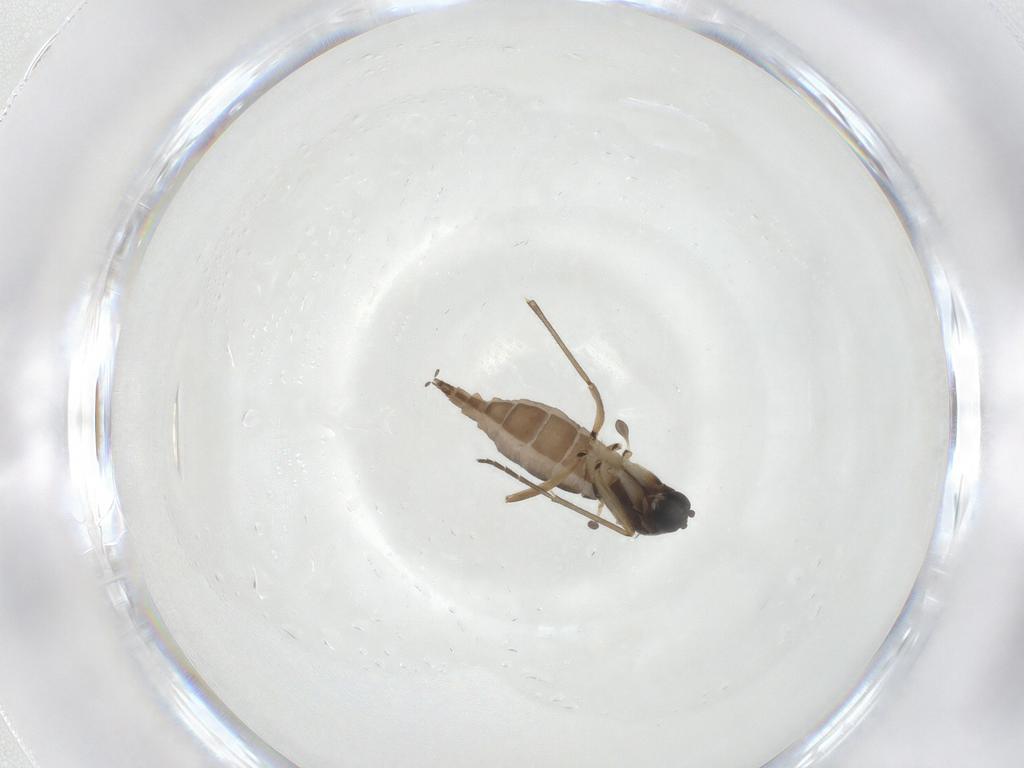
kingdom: Animalia
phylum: Arthropoda
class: Insecta
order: Diptera
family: Sciaridae
